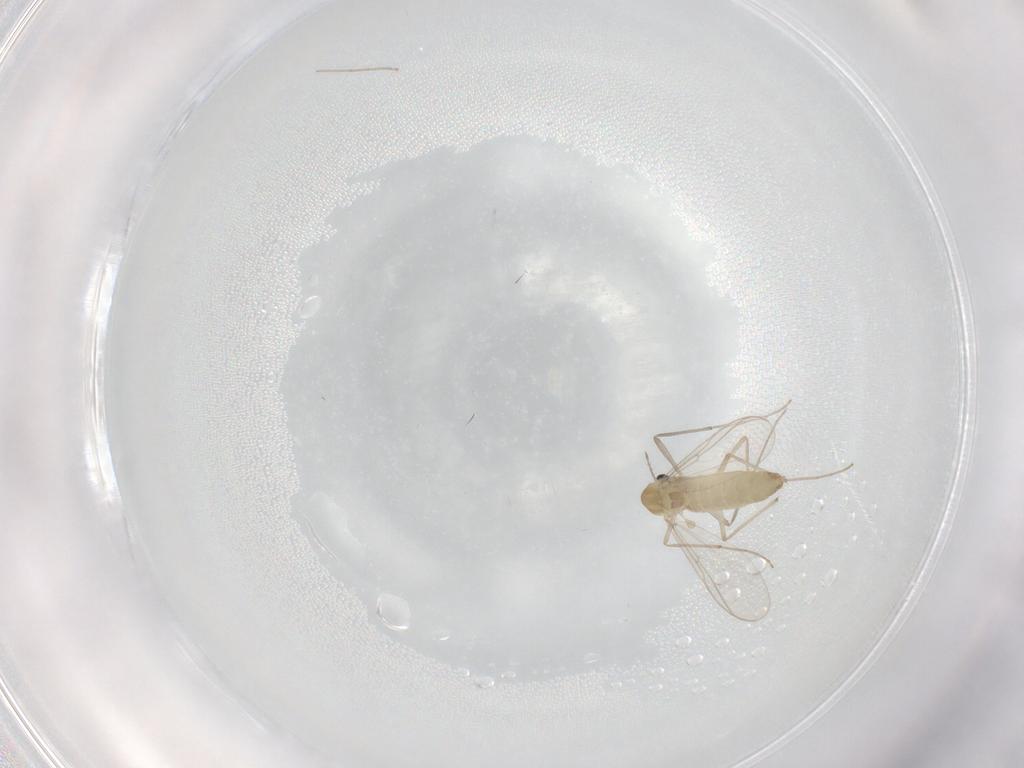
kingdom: Animalia
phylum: Arthropoda
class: Insecta
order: Diptera
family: Chironomidae
